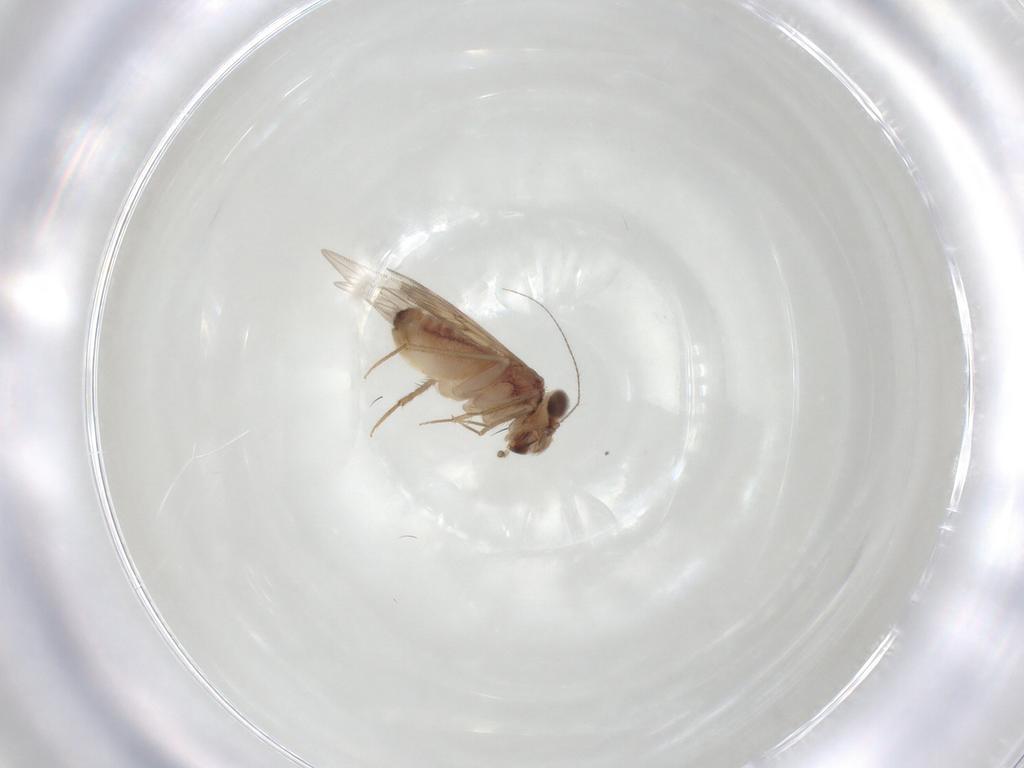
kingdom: Animalia
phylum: Arthropoda
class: Insecta
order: Psocodea
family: Lepidopsocidae
